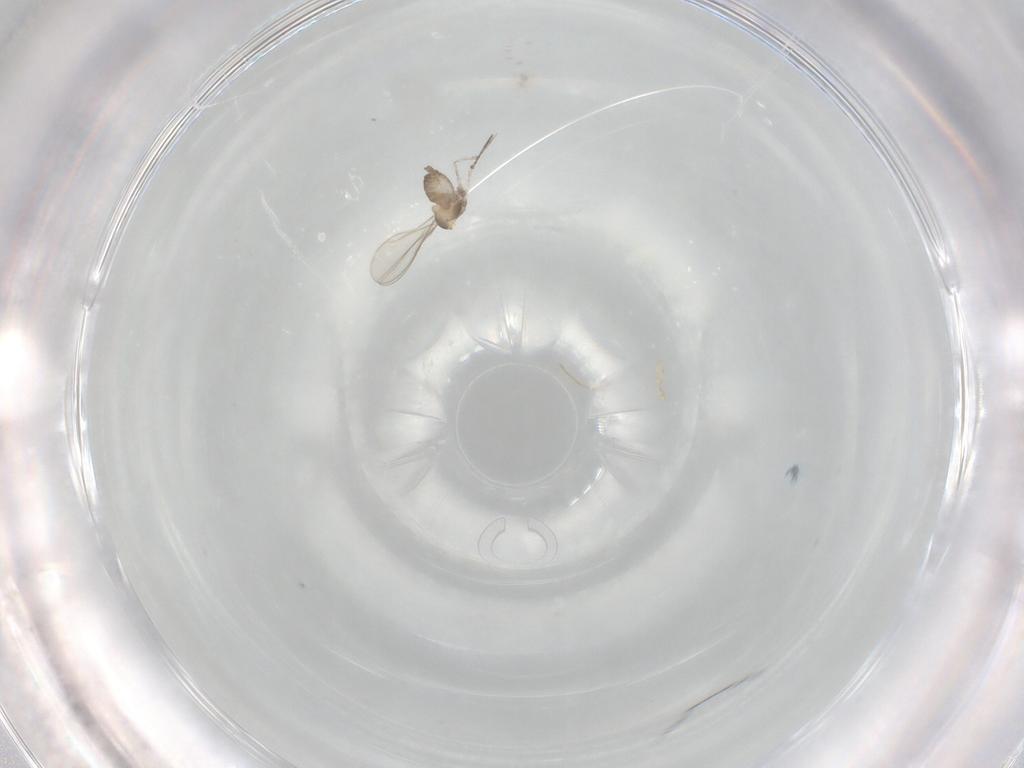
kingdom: Animalia
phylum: Arthropoda
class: Insecta
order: Diptera
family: Cecidomyiidae
